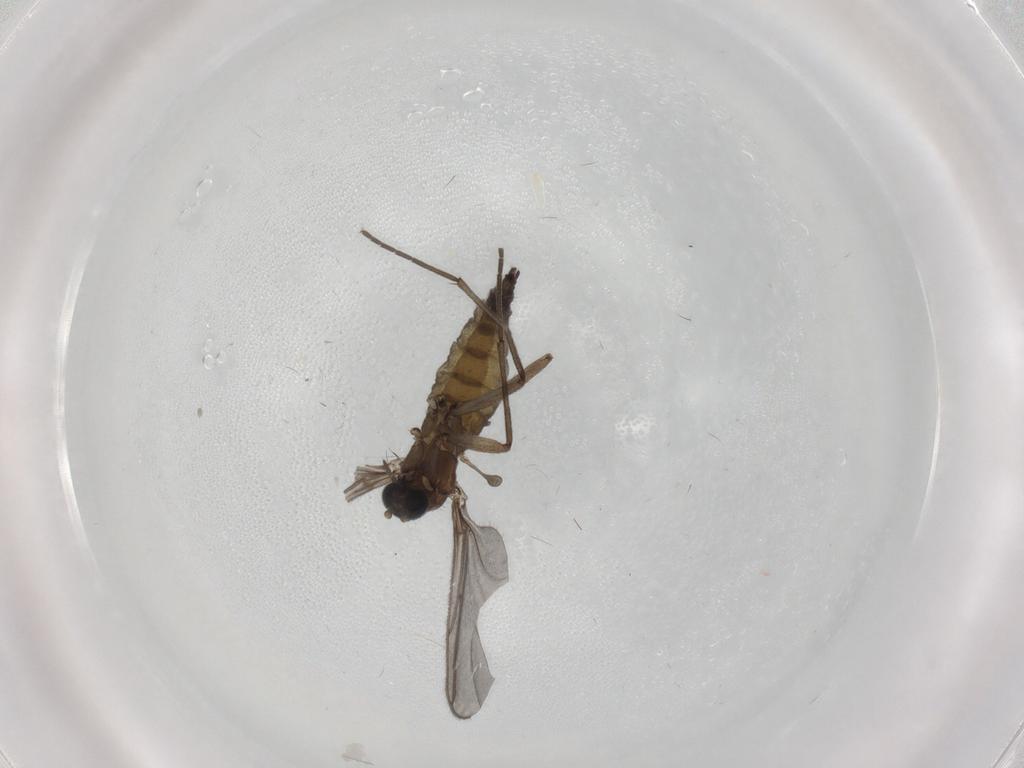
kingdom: Animalia
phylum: Arthropoda
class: Insecta
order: Diptera
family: Sciaridae
